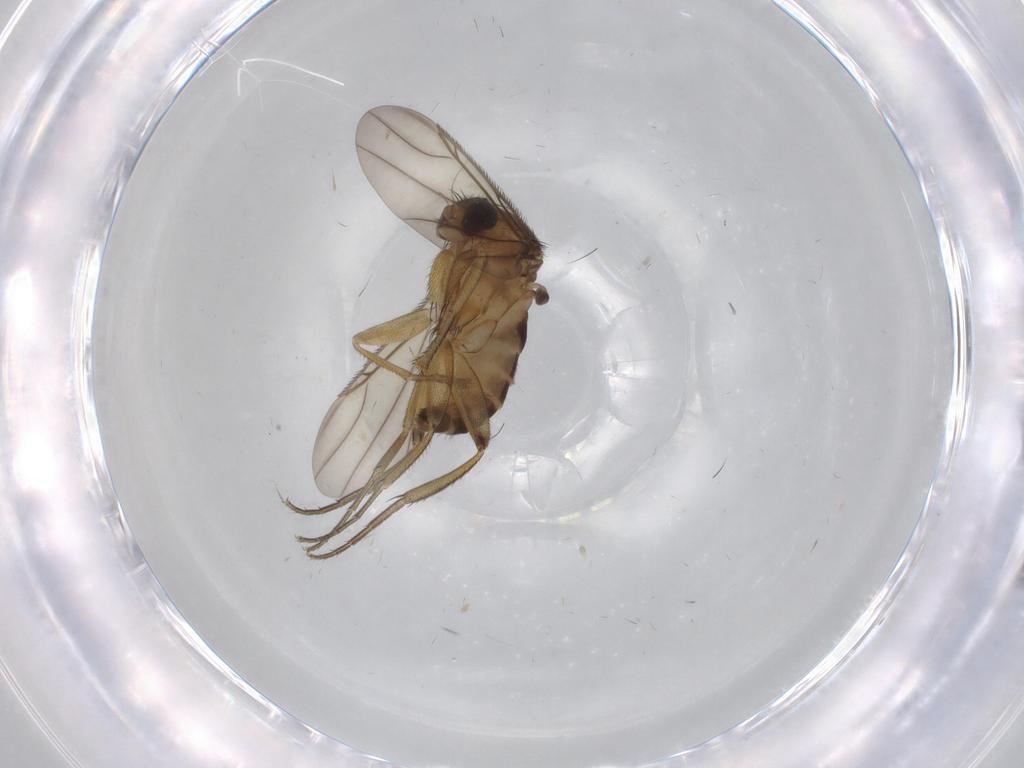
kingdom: Animalia
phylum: Arthropoda
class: Insecta
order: Diptera
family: Phoridae
